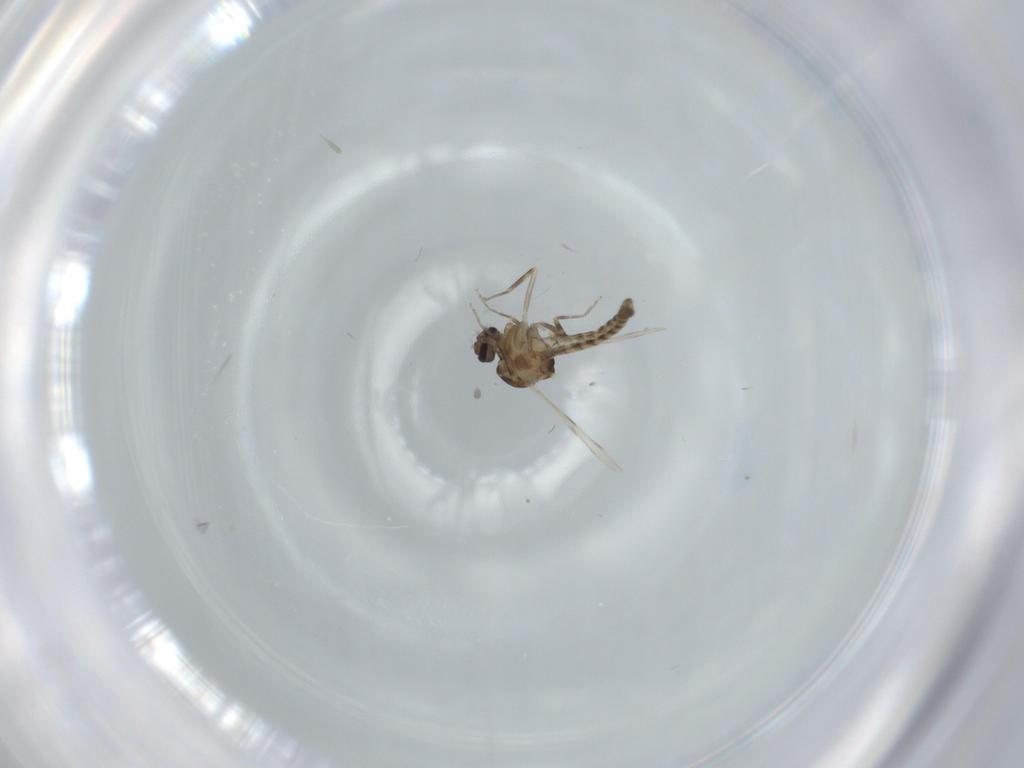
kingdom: Animalia
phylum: Arthropoda
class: Insecta
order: Diptera
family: Ceratopogonidae
